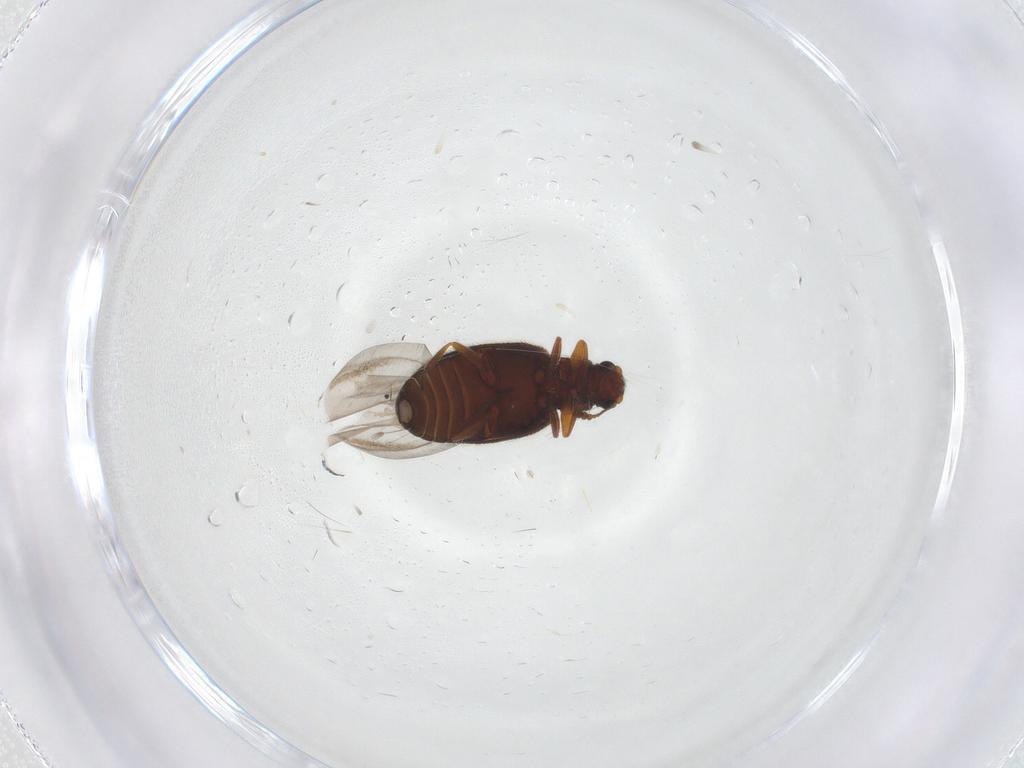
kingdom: Animalia
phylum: Arthropoda
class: Insecta
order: Coleoptera
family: Latridiidae
